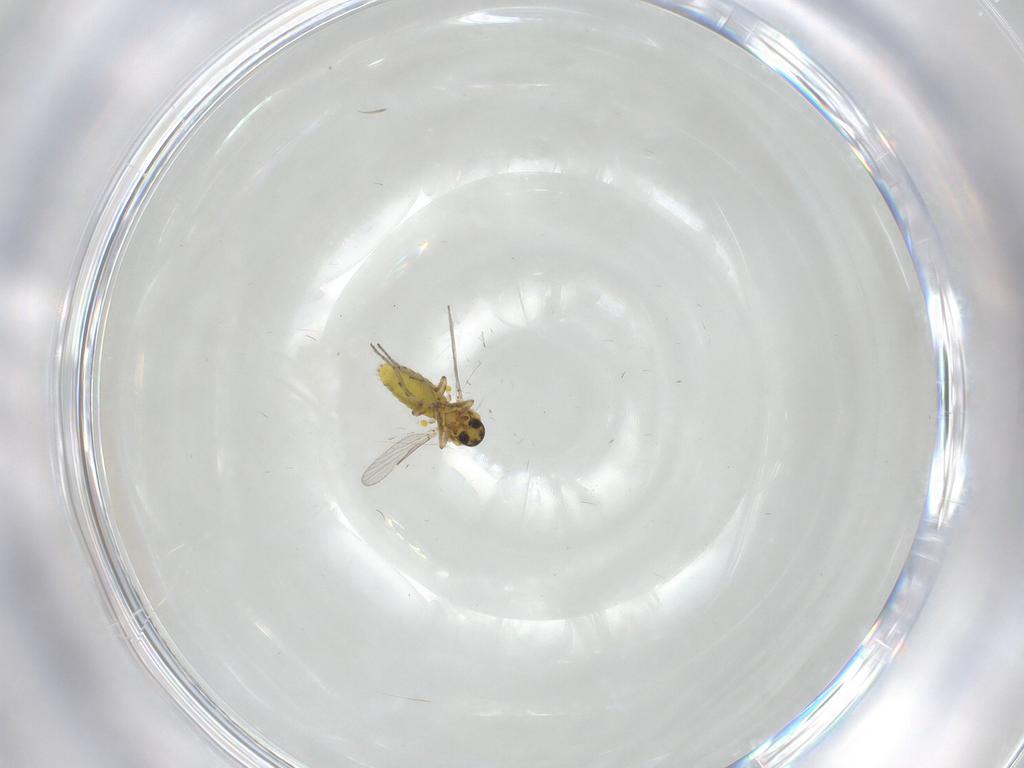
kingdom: Animalia
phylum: Arthropoda
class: Insecta
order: Diptera
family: Ceratopogonidae
